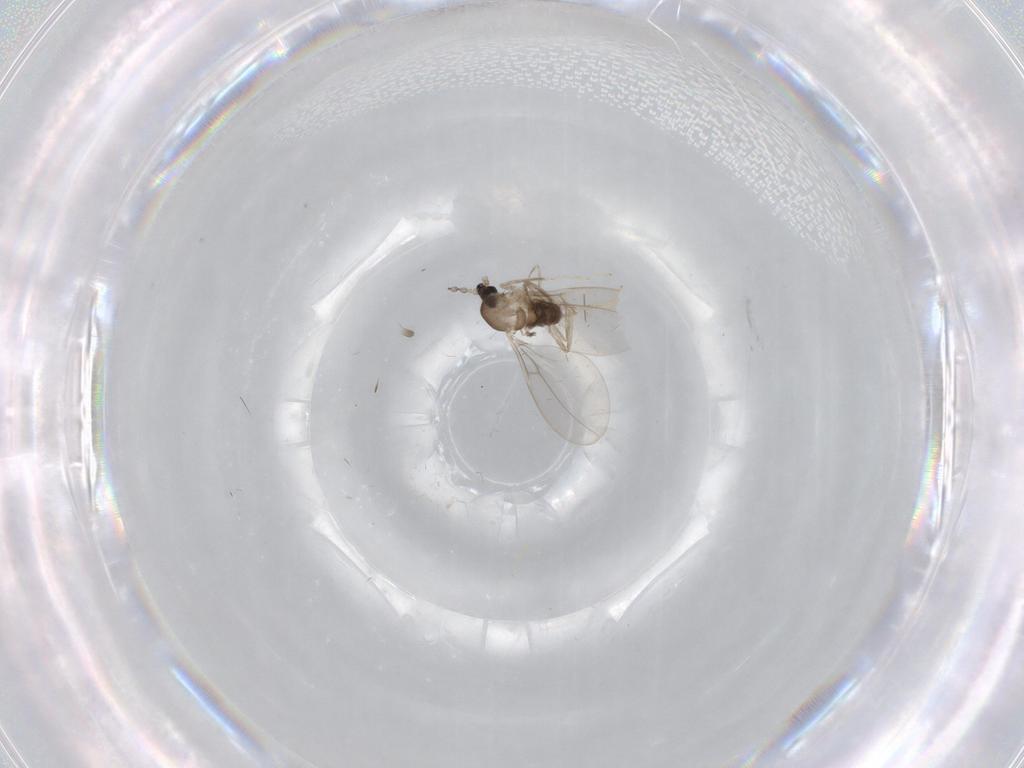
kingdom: Animalia
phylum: Arthropoda
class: Insecta
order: Diptera
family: Cecidomyiidae
